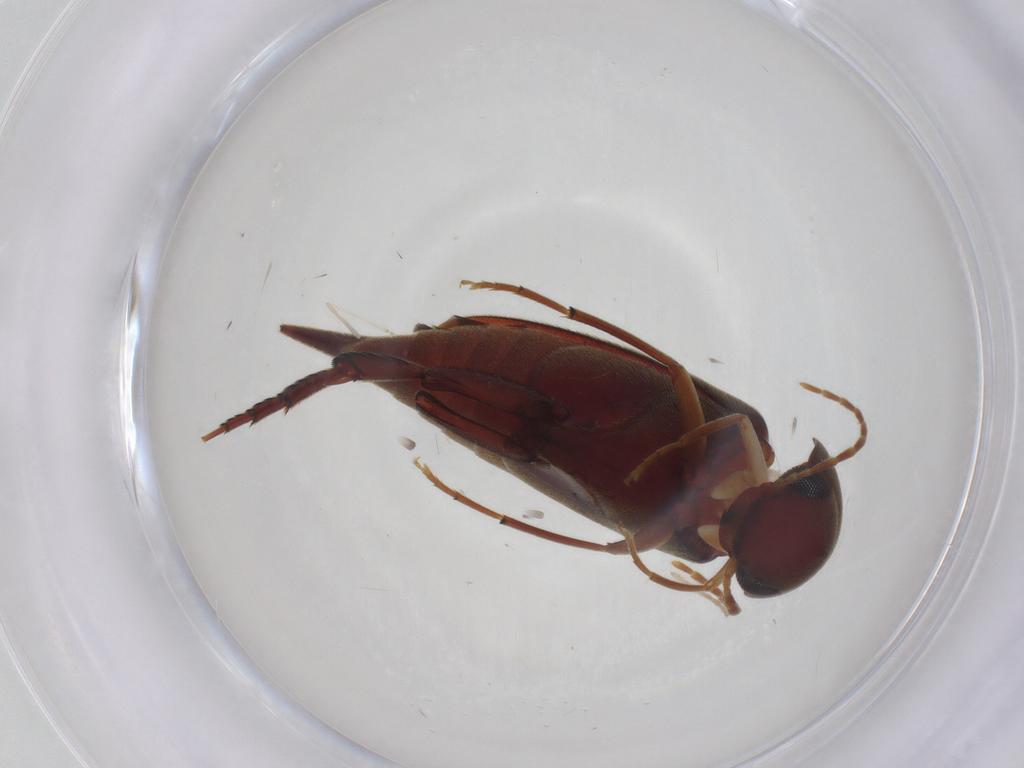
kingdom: Animalia
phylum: Arthropoda
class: Insecta
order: Coleoptera
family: Mordellidae
